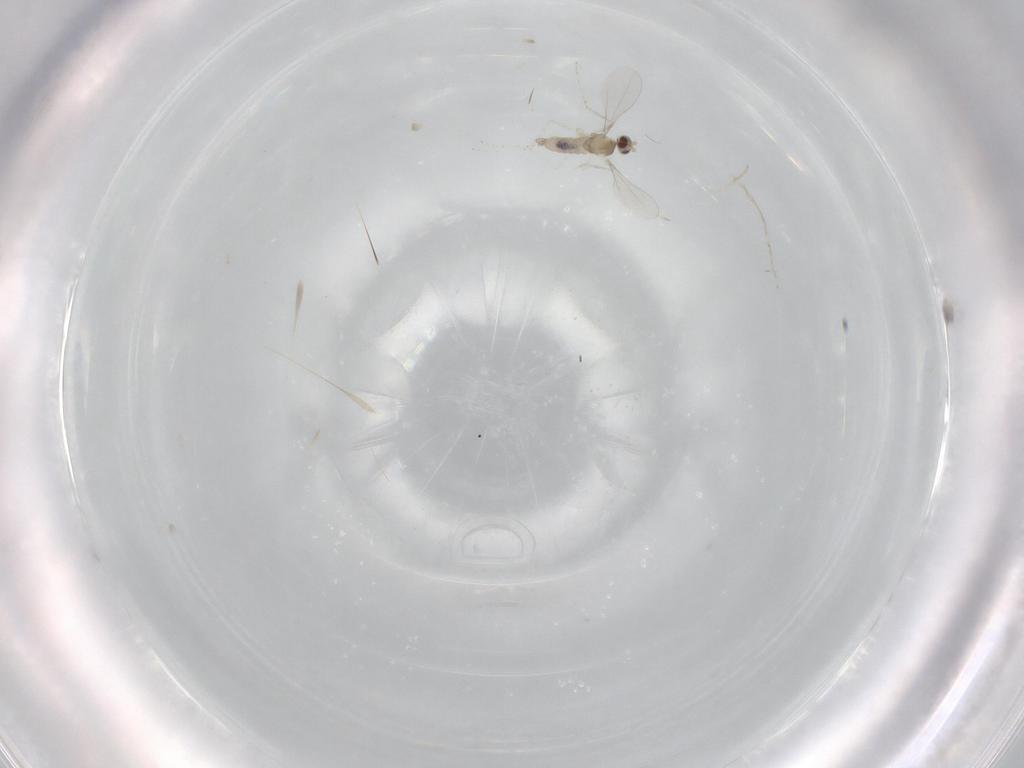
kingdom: Animalia
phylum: Arthropoda
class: Insecta
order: Diptera
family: Cecidomyiidae
